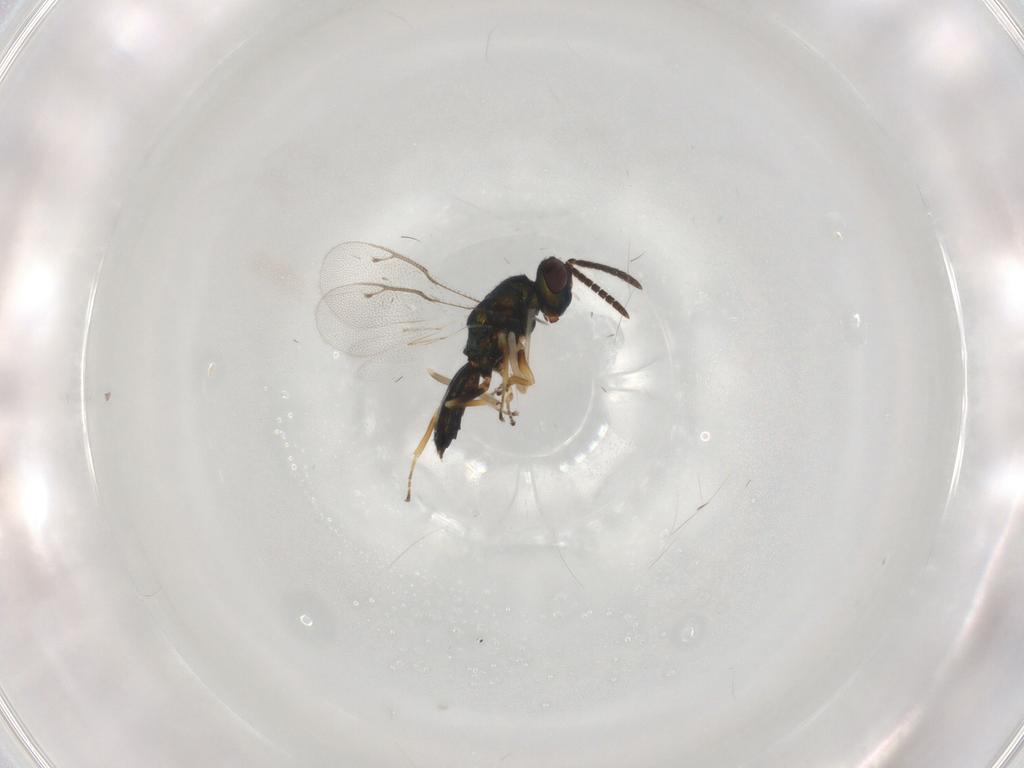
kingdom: Animalia
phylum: Arthropoda
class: Insecta
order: Hymenoptera
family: Pteromalidae
